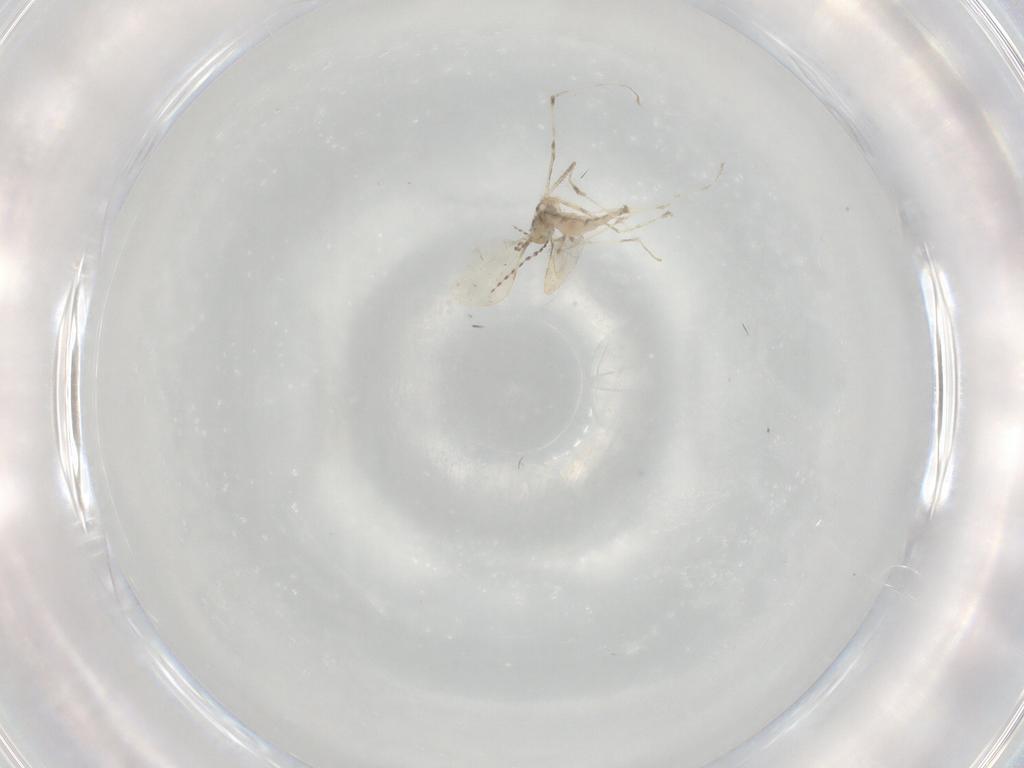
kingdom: Animalia
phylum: Arthropoda
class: Insecta
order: Diptera
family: Cecidomyiidae
